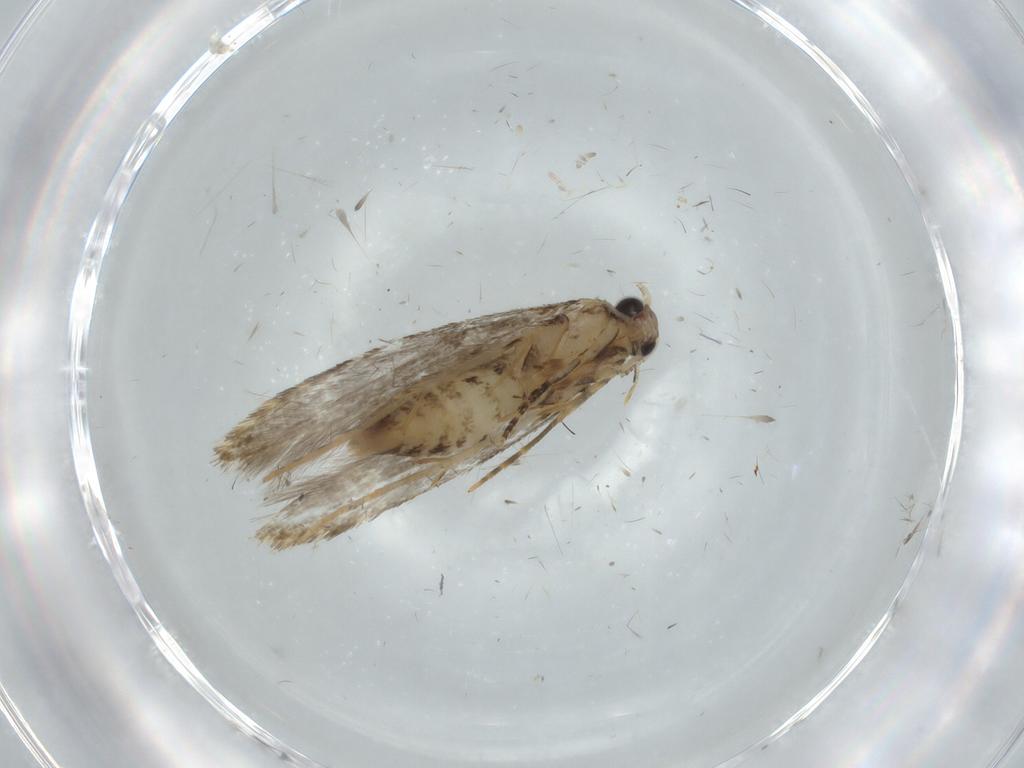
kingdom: Animalia
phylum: Arthropoda
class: Insecta
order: Lepidoptera
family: Tineidae
